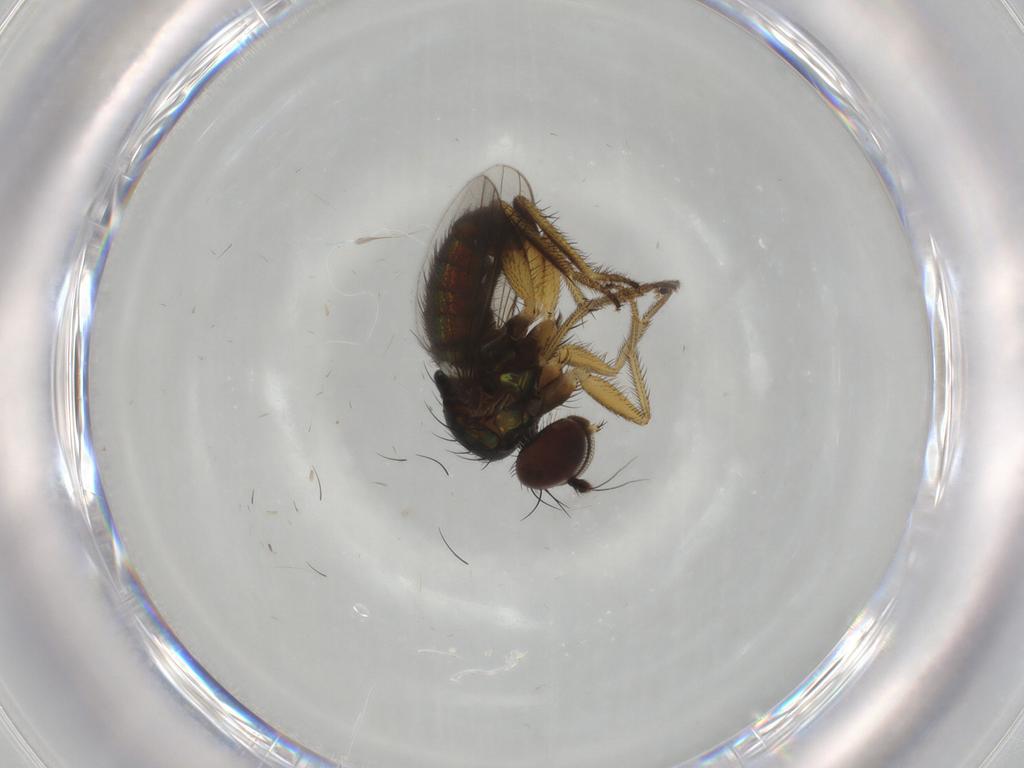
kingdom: Animalia
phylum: Arthropoda
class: Insecta
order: Diptera
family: Dolichopodidae
